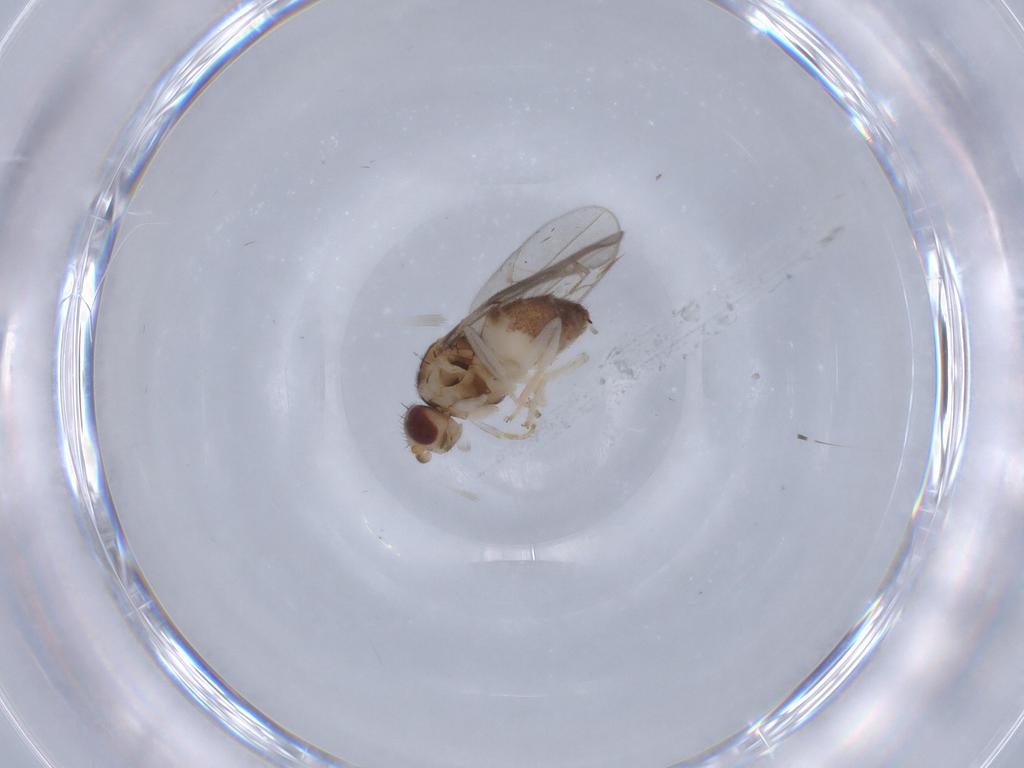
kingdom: Animalia
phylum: Arthropoda
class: Insecta
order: Diptera
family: Chloropidae
